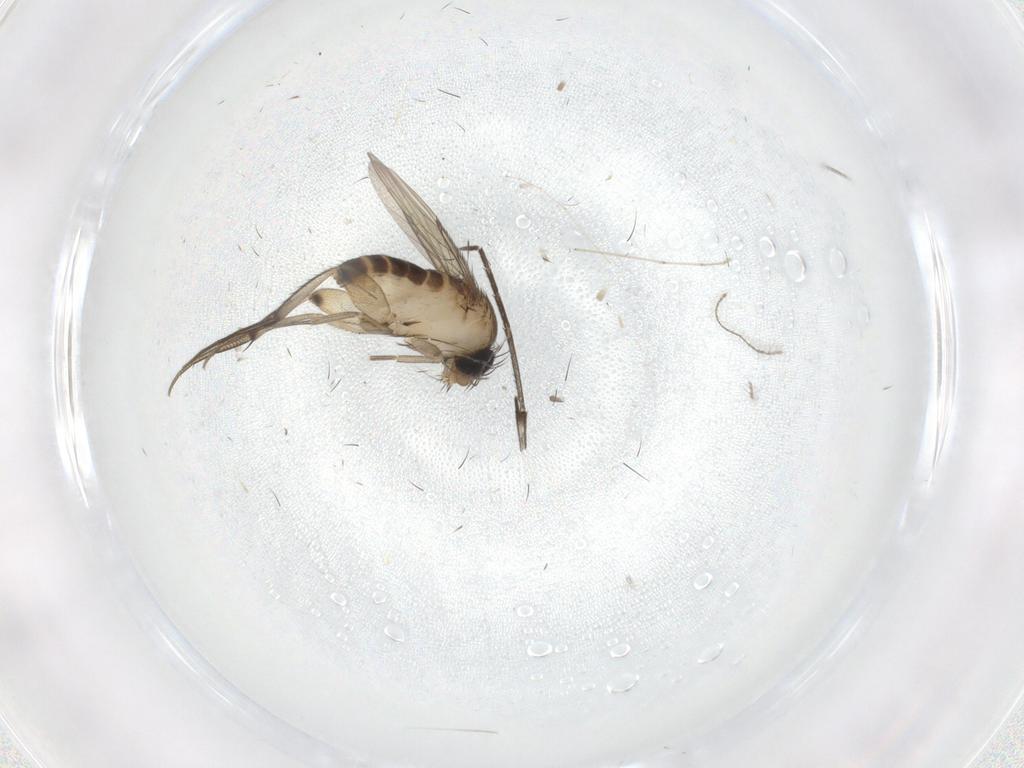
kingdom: Animalia
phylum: Arthropoda
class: Insecta
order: Diptera
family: Phoridae
